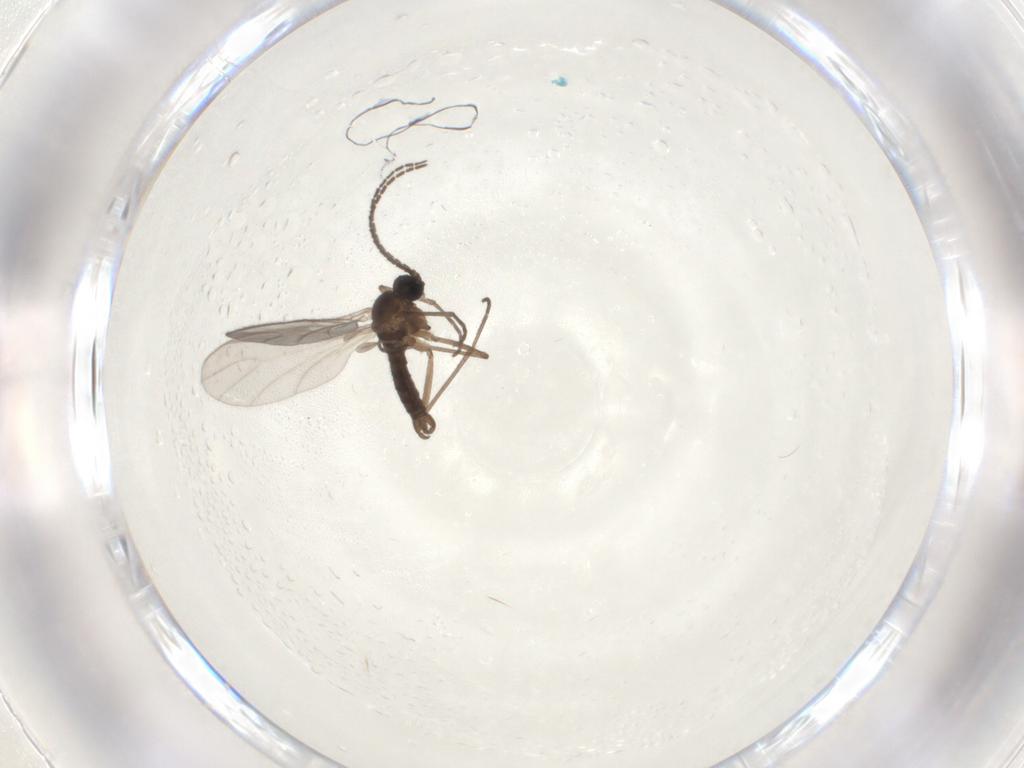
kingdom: Animalia
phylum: Arthropoda
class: Insecta
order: Diptera
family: Sciaridae
